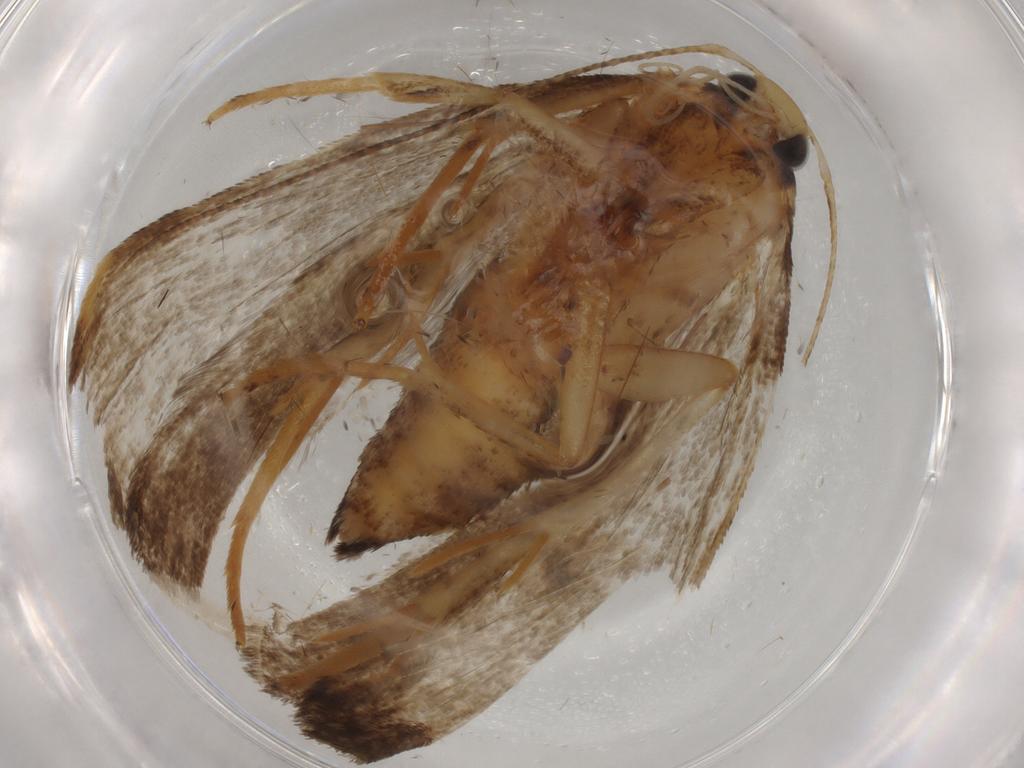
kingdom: Animalia
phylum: Arthropoda
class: Insecta
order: Lepidoptera
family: Gelechiidae
